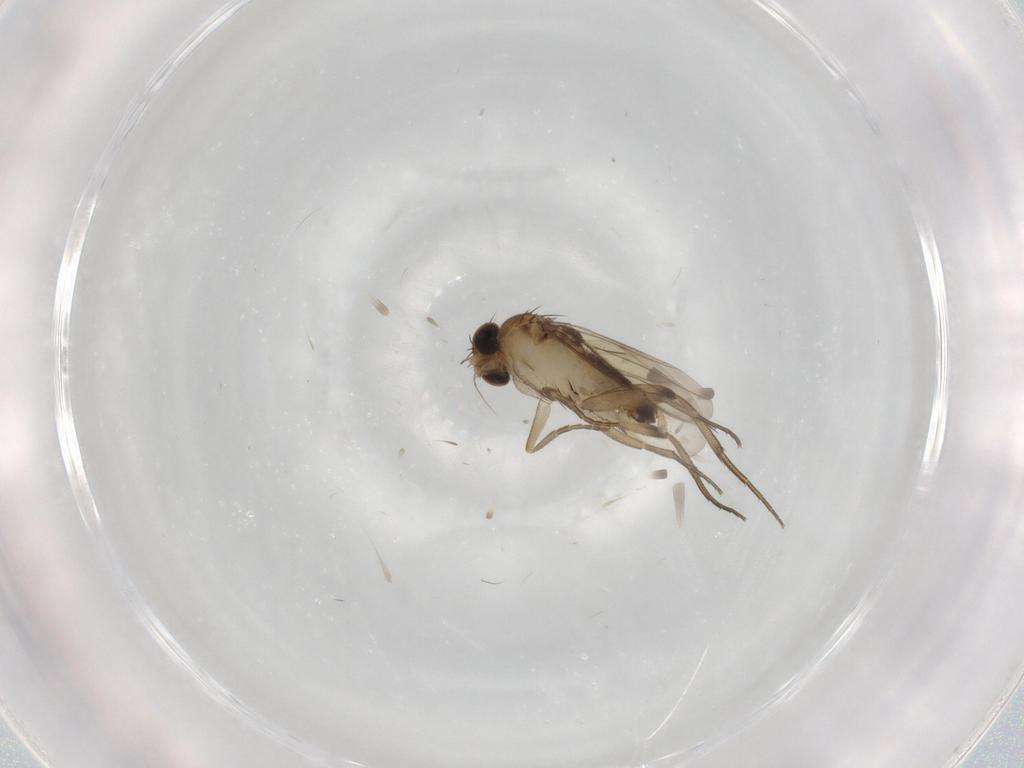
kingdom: Animalia
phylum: Arthropoda
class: Insecta
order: Diptera
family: Phoridae
